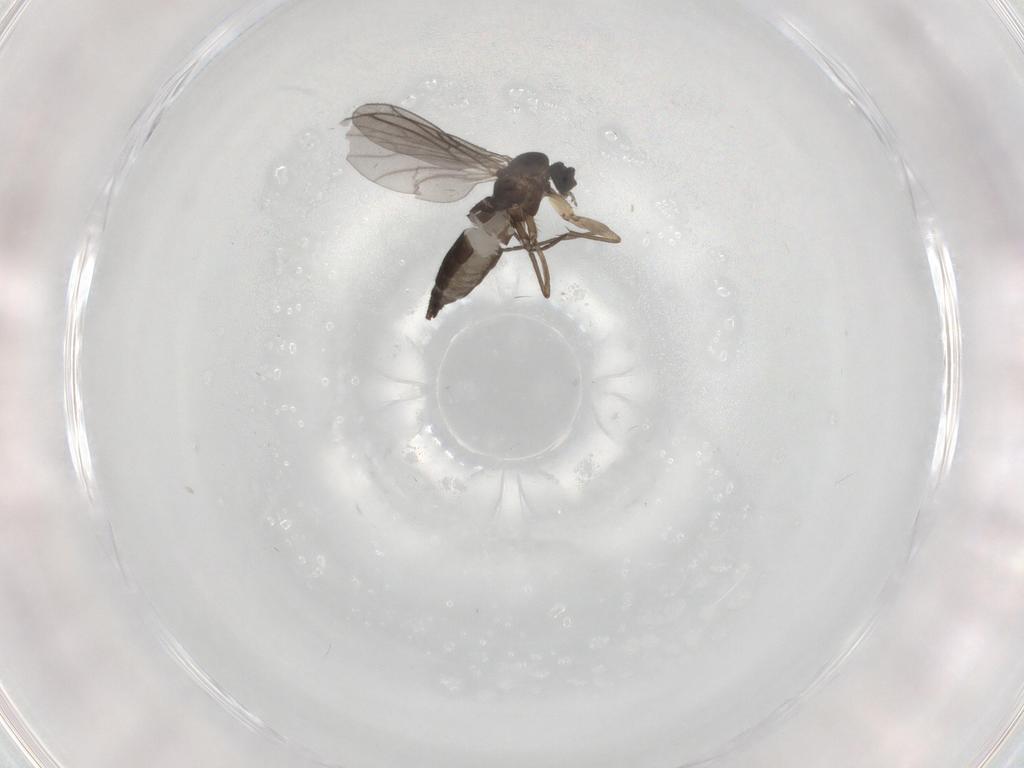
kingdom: Animalia
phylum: Arthropoda
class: Insecta
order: Diptera
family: Sciaridae
